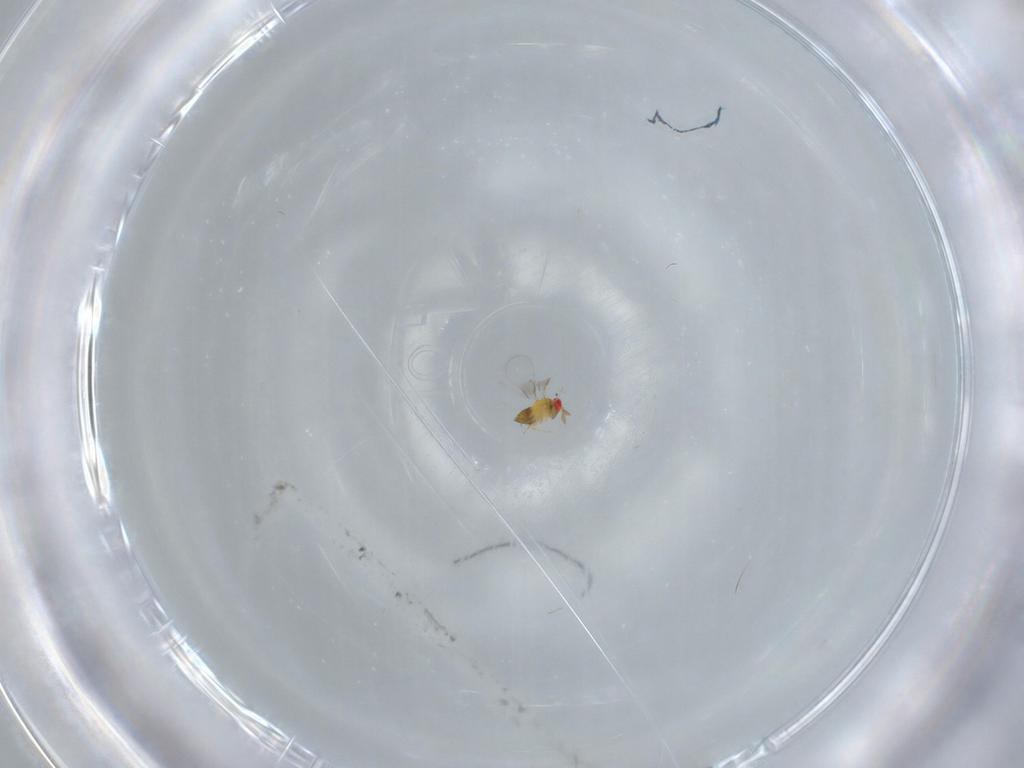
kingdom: Animalia
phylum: Arthropoda
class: Insecta
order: Hymenoptera
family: Trichogrammatidae
